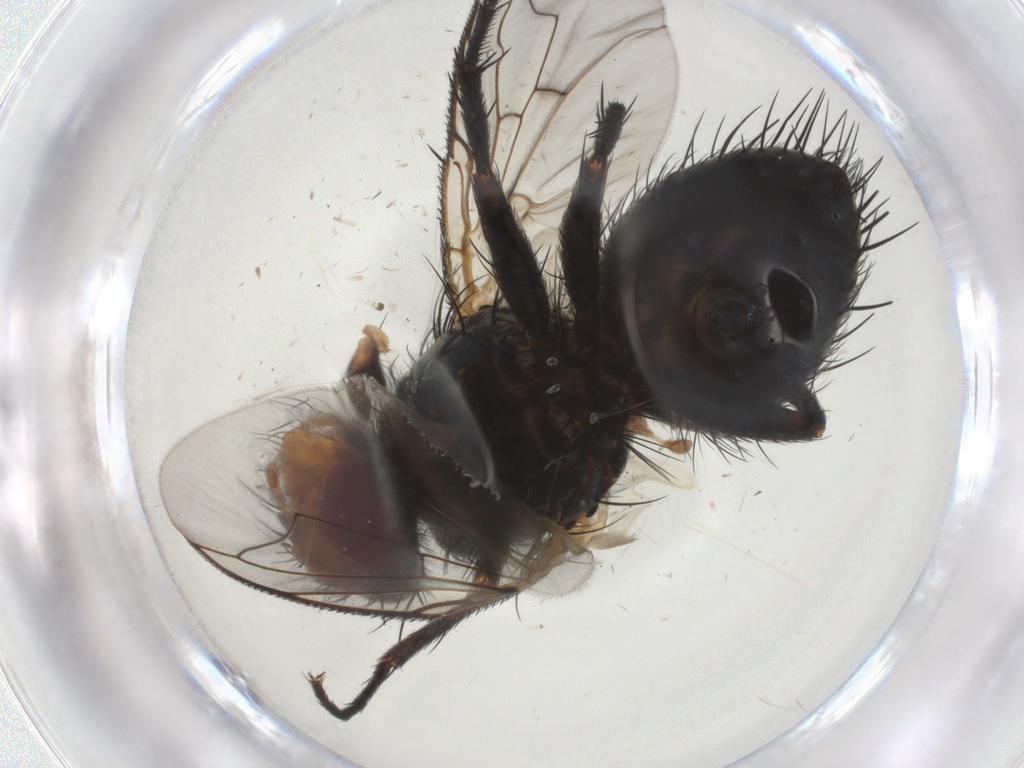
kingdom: Animalia
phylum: Arthropoda
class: Insecta
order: Diptera
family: Tachinidae
